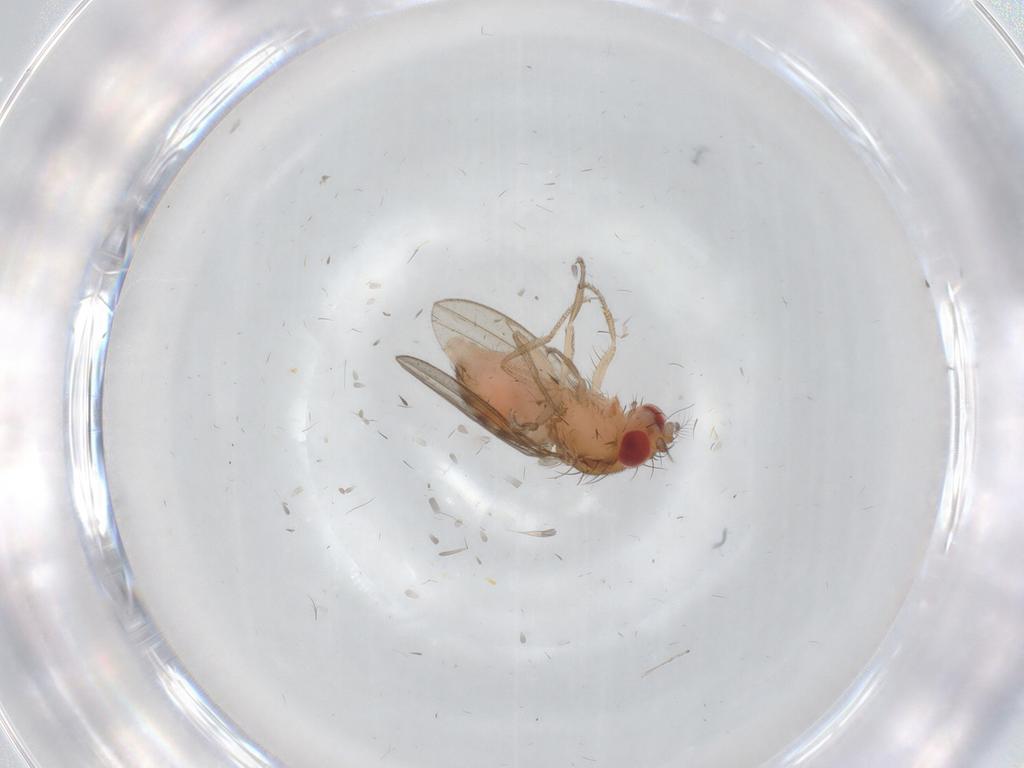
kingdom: Animalia
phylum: Arthropoda
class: Insecta
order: Diptera
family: Drosophilidae
